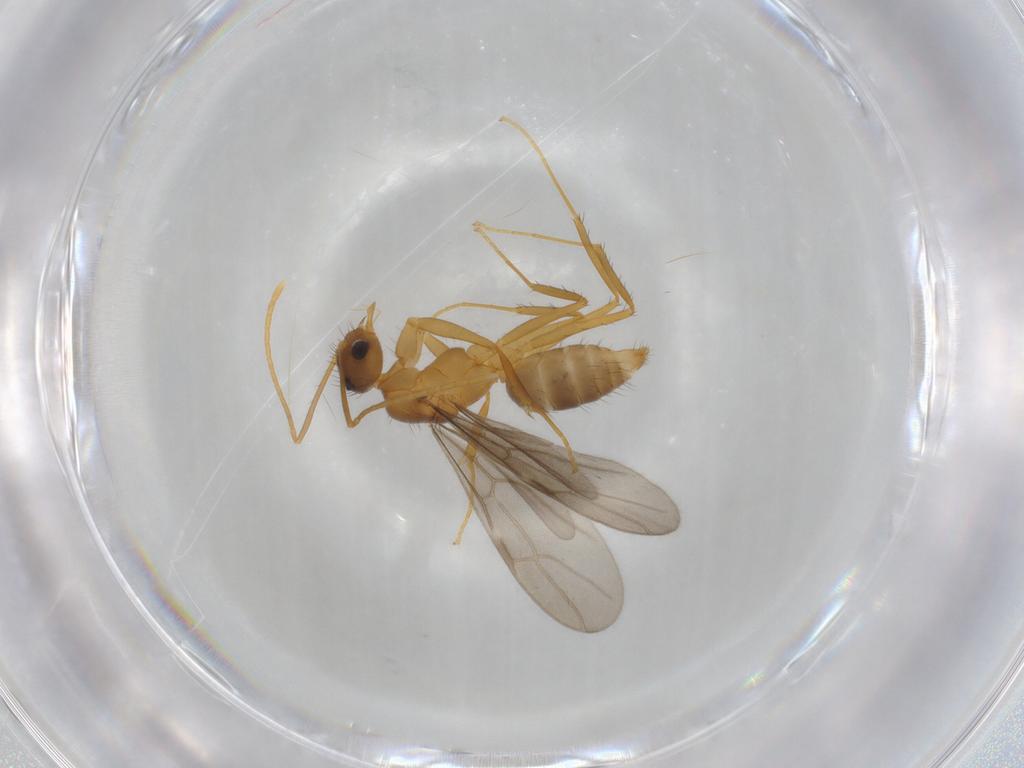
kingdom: Animalia
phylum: Arthropoda
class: Insecta
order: Hymenoptera
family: Formicidae
